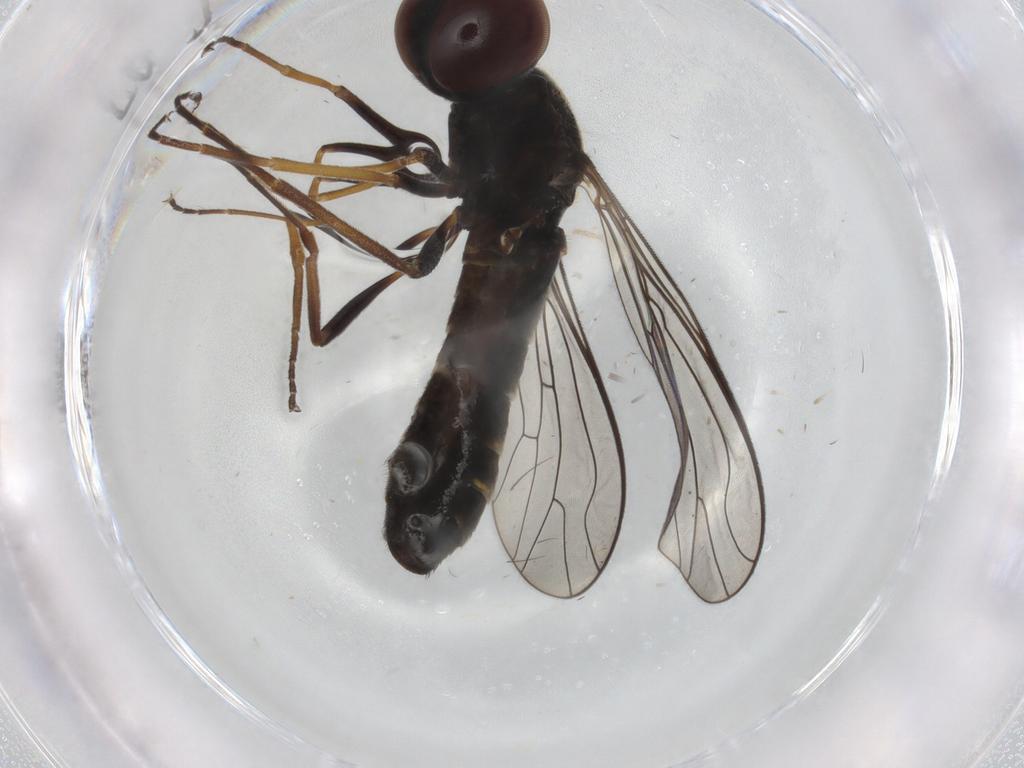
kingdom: Animalia
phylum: Arthropoda
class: Insecta
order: Diptera
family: Bombyliidae
